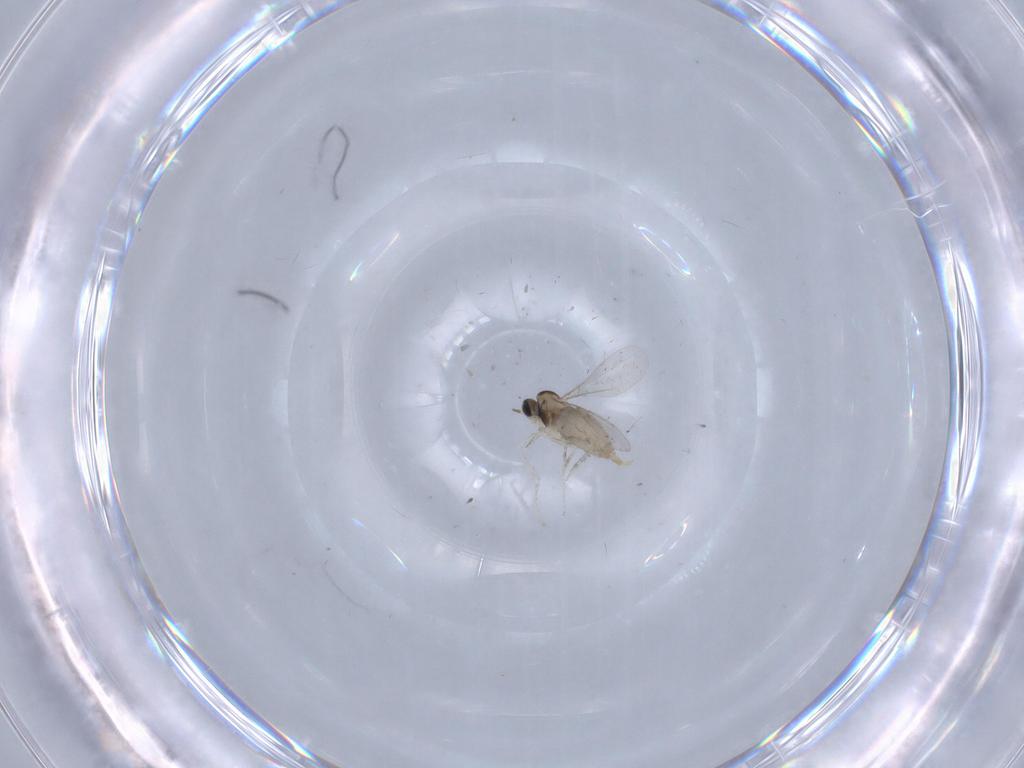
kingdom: Animalia
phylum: Arthropoda
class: Insecta
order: Diptera
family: Cecidomyiidae
